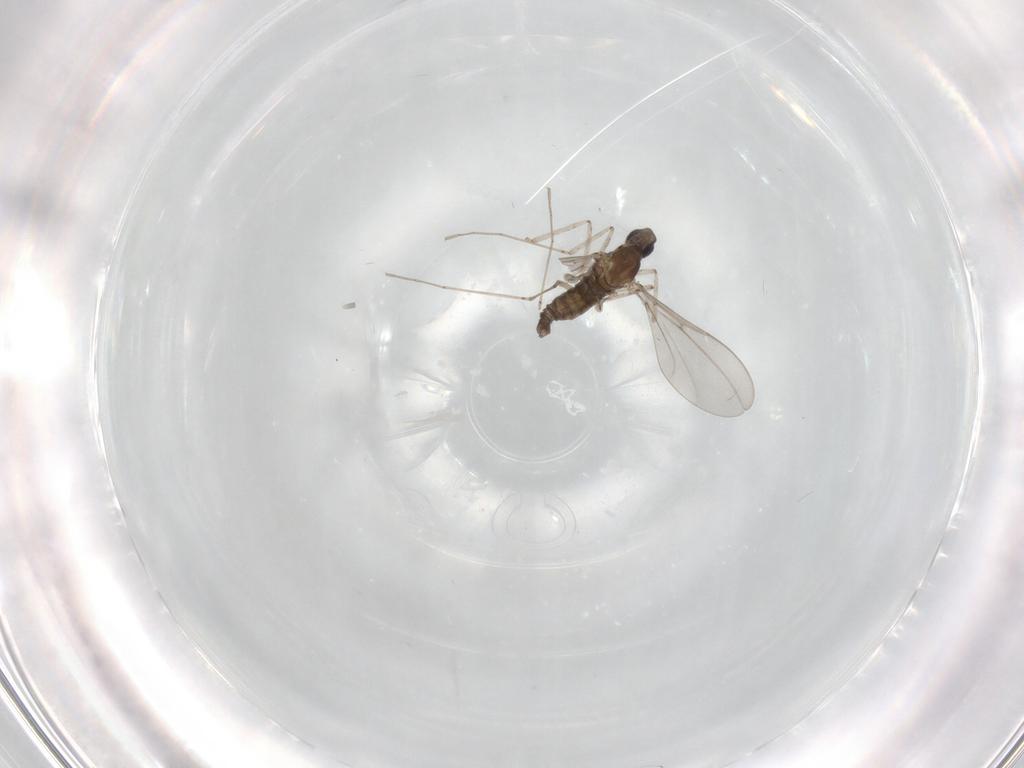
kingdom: Animalia
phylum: Arthropoda
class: Insecta
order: Diptera
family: Cecidomyiidae
